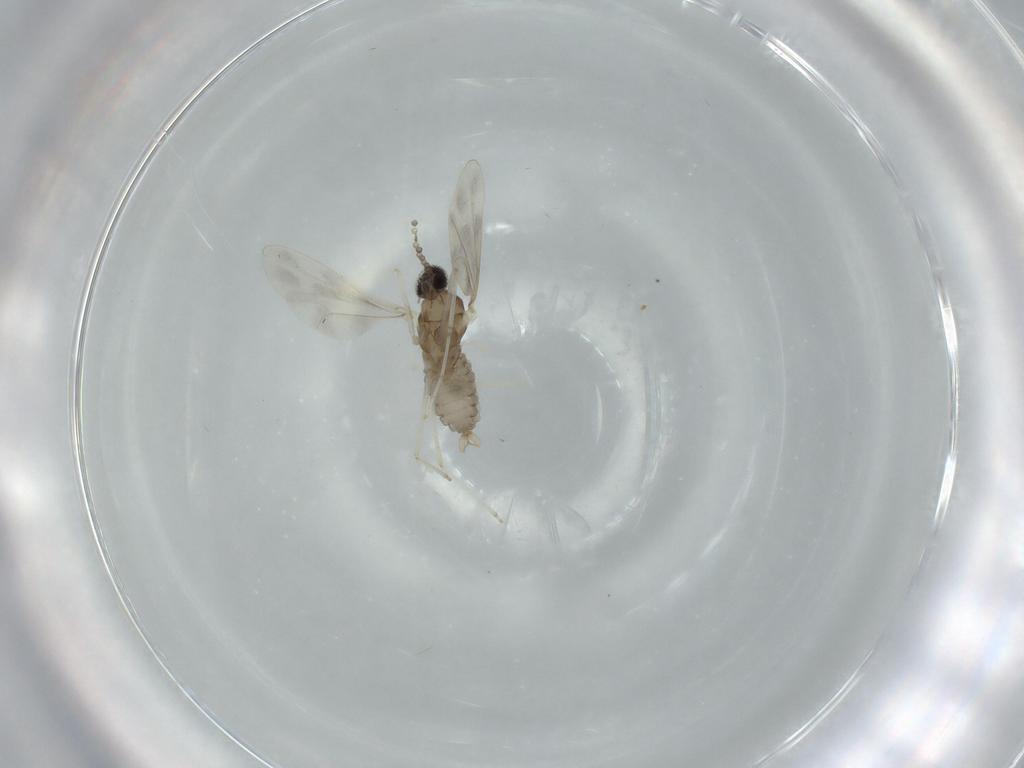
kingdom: Animalia
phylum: Arthropoda
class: Insecta
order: Diptera
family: Cecidomyiidae
